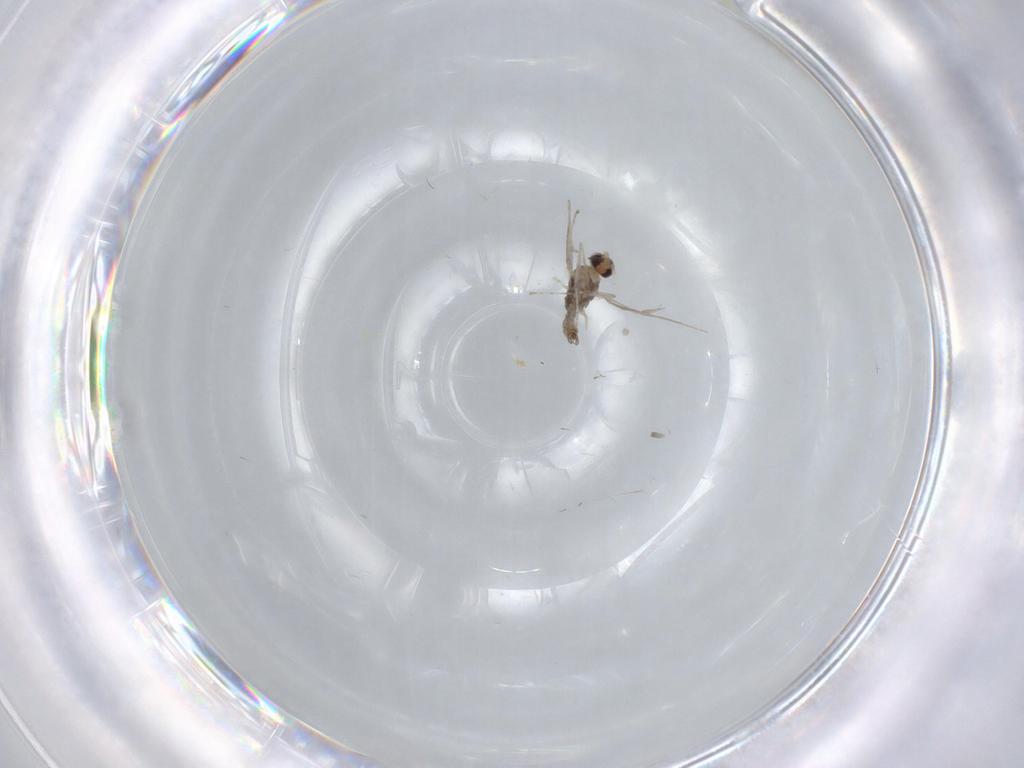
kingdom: Animalia
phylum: Arthropoda
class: Insecta
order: Diptera
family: Cecidomyiidae
